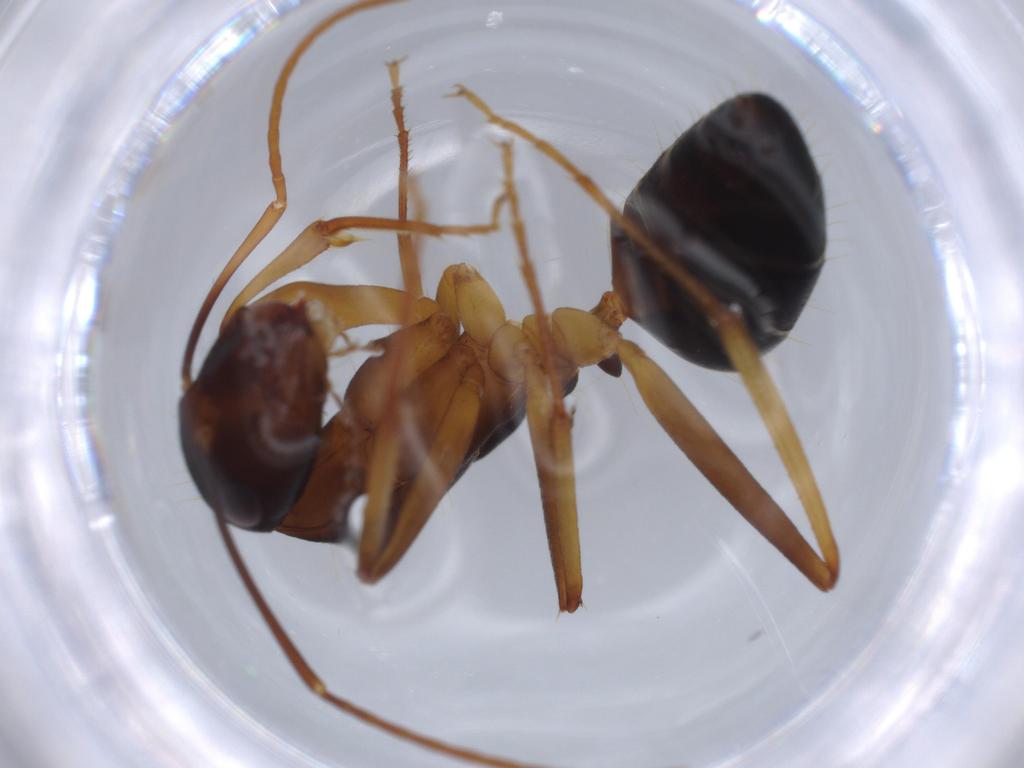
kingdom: Animalia
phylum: Arthropoda
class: Insecta
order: Hymenoptera
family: Formicidae
